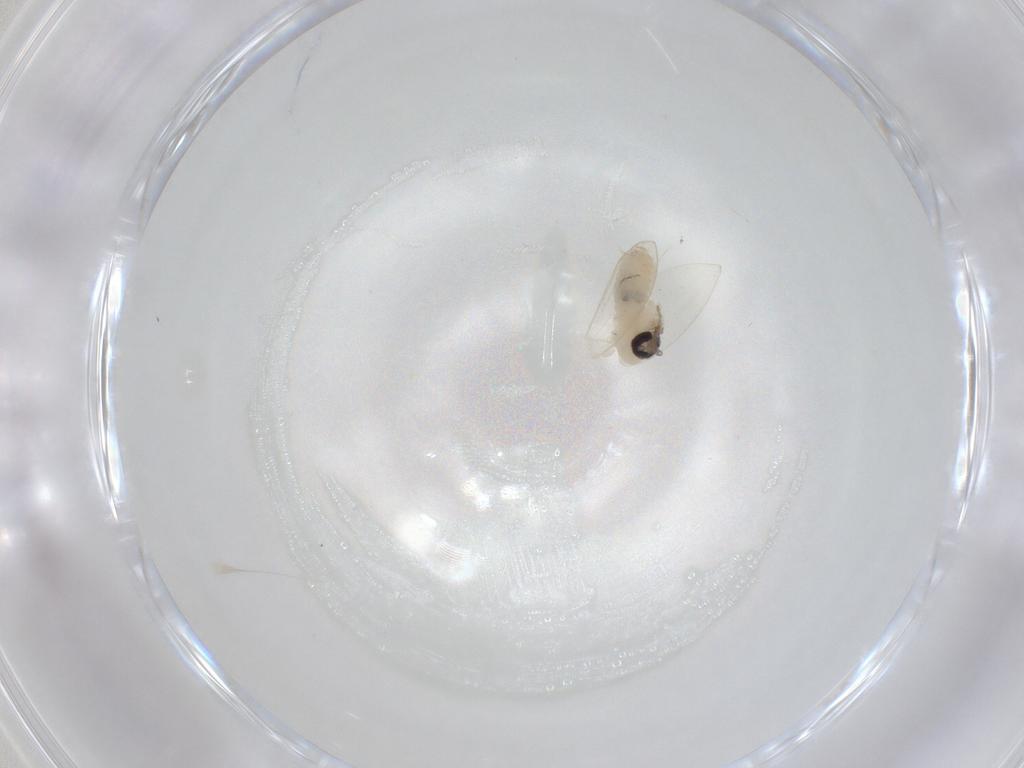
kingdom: Animalia
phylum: Arthropoda
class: Insecta
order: Diptera
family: Psychodidae
